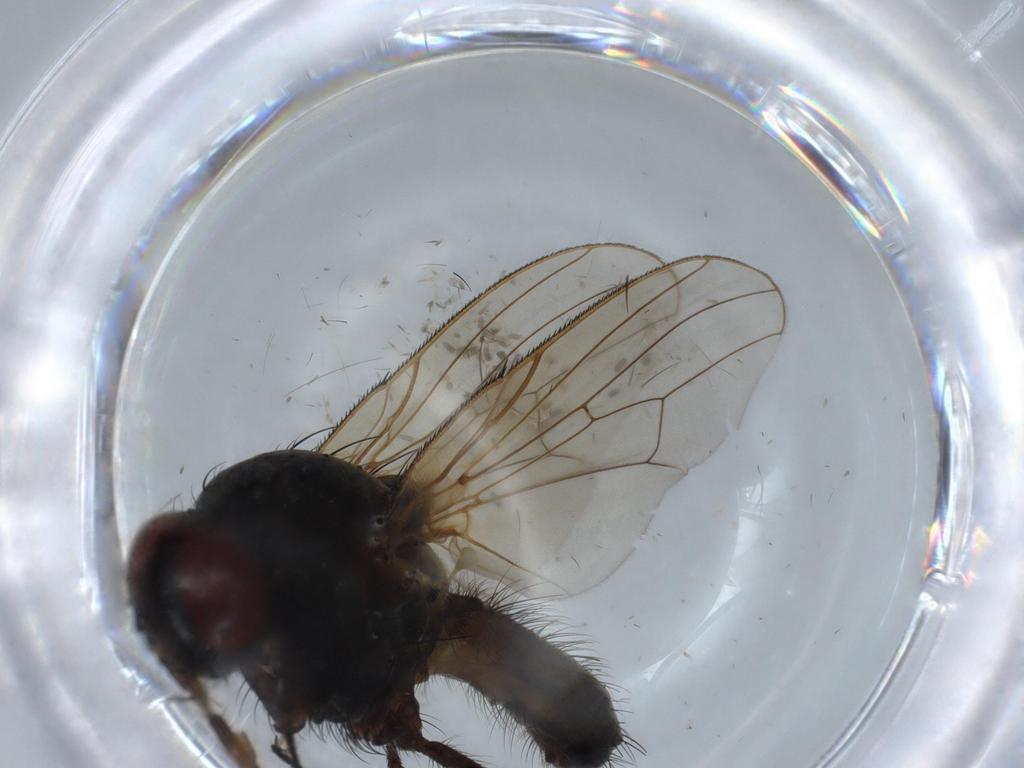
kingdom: Animalia
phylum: Arthropoda
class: Insecta
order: Diptera
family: Anthomyiidae
